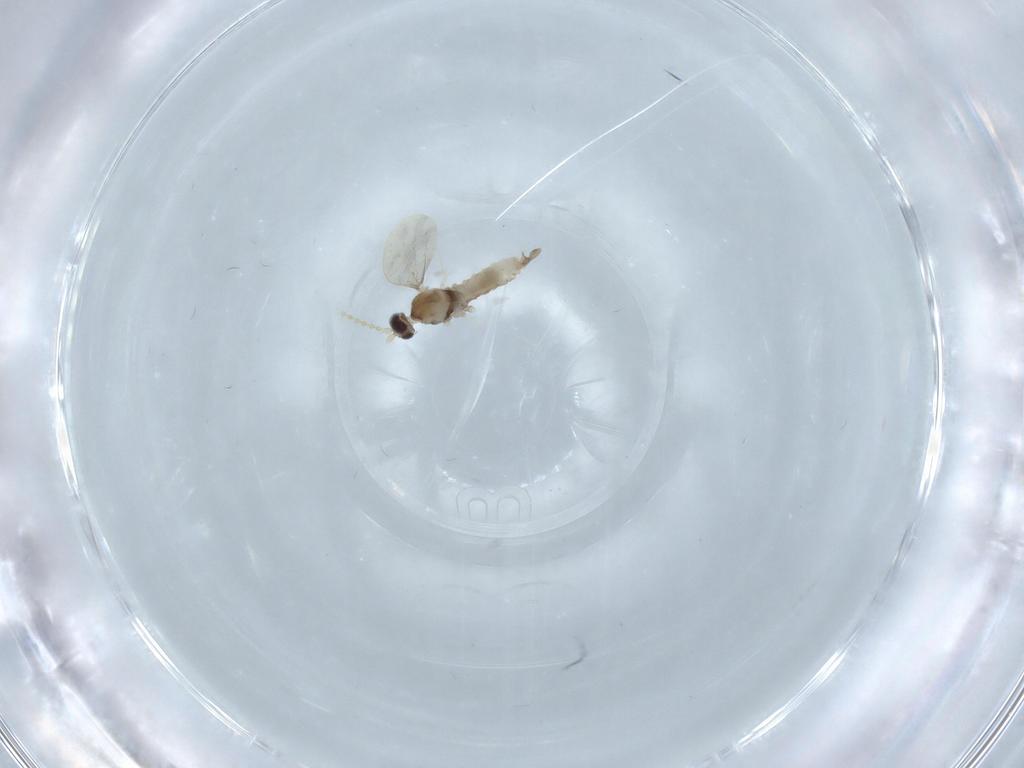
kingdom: Animalia
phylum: Arthropoda
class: Insecta
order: Diptera
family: Cecidomyiidae
